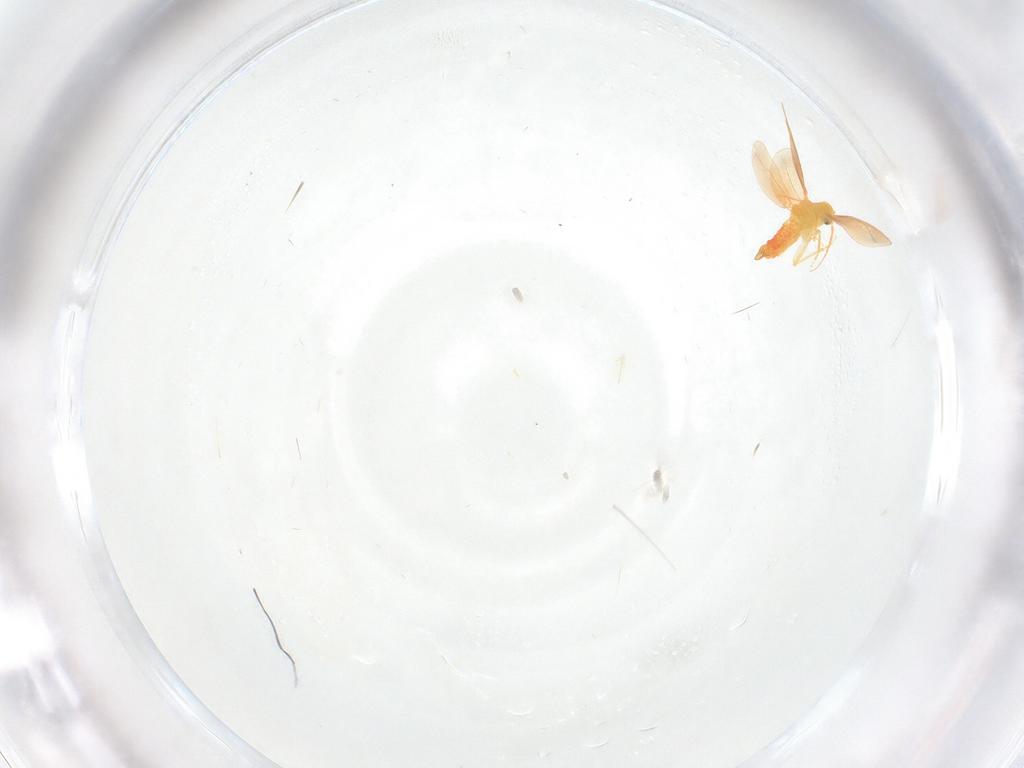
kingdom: Animalia
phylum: Arthropoda
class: Insecta
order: Hemiptera
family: Aleyrodidae
